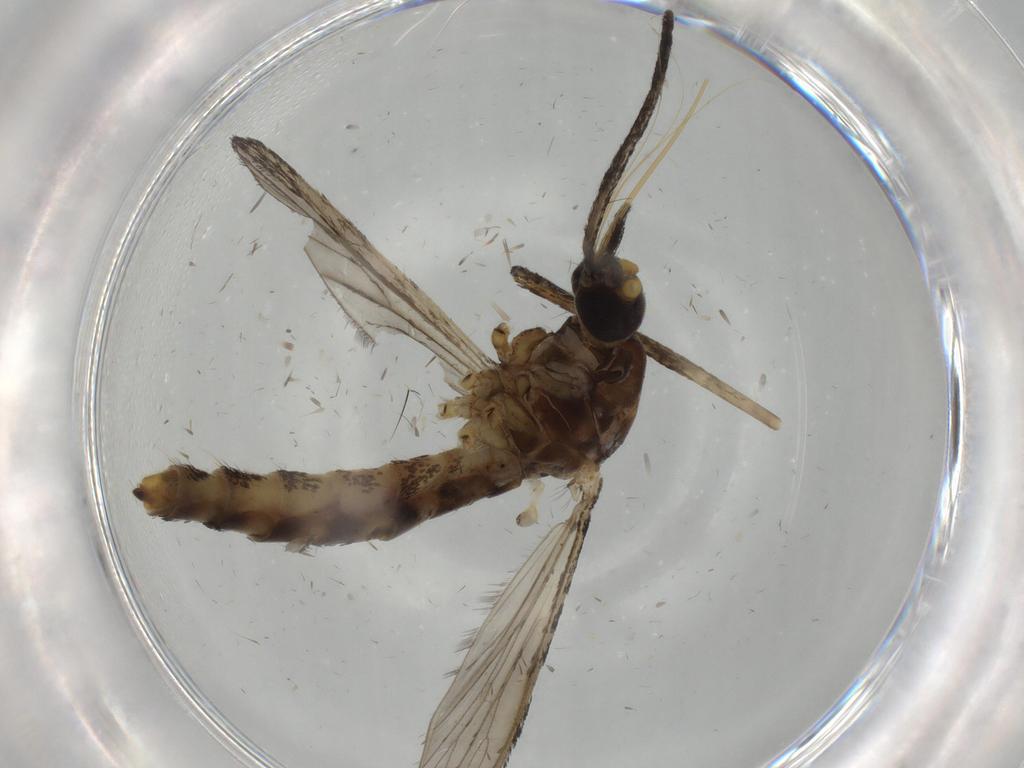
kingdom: Animalia
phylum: Arthropoda
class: Insecta
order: Diptera
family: Sciaridae
